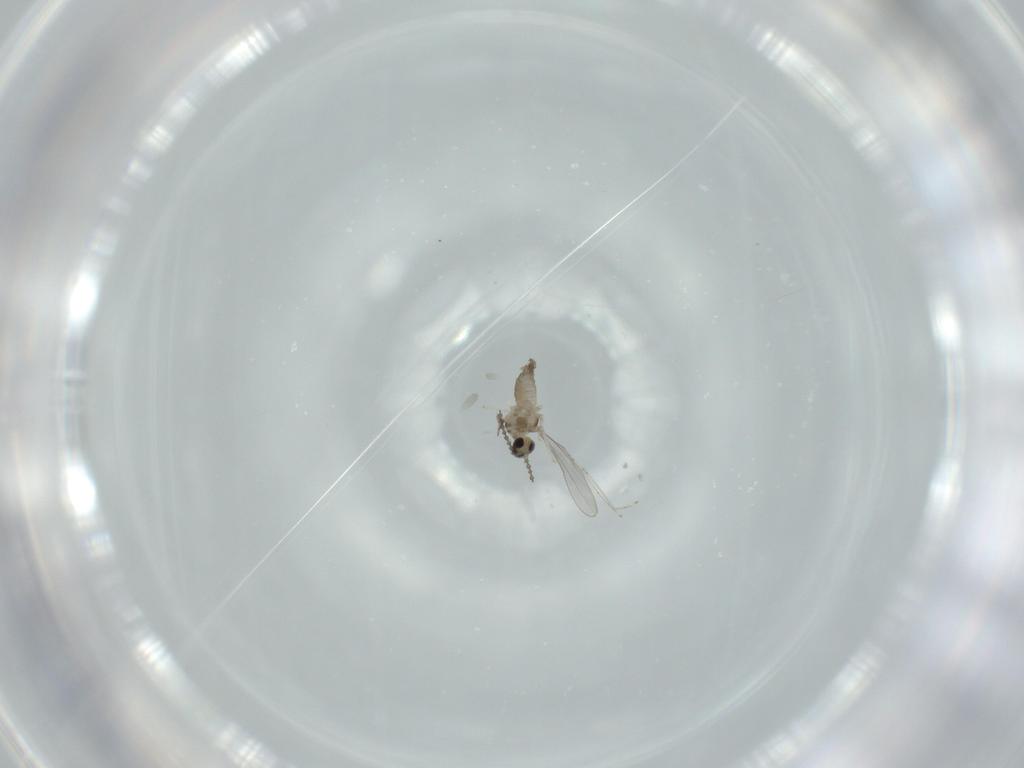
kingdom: Animalia
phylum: Arthropoda
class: Insecta
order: Diptera
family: Cecidomyiidae
